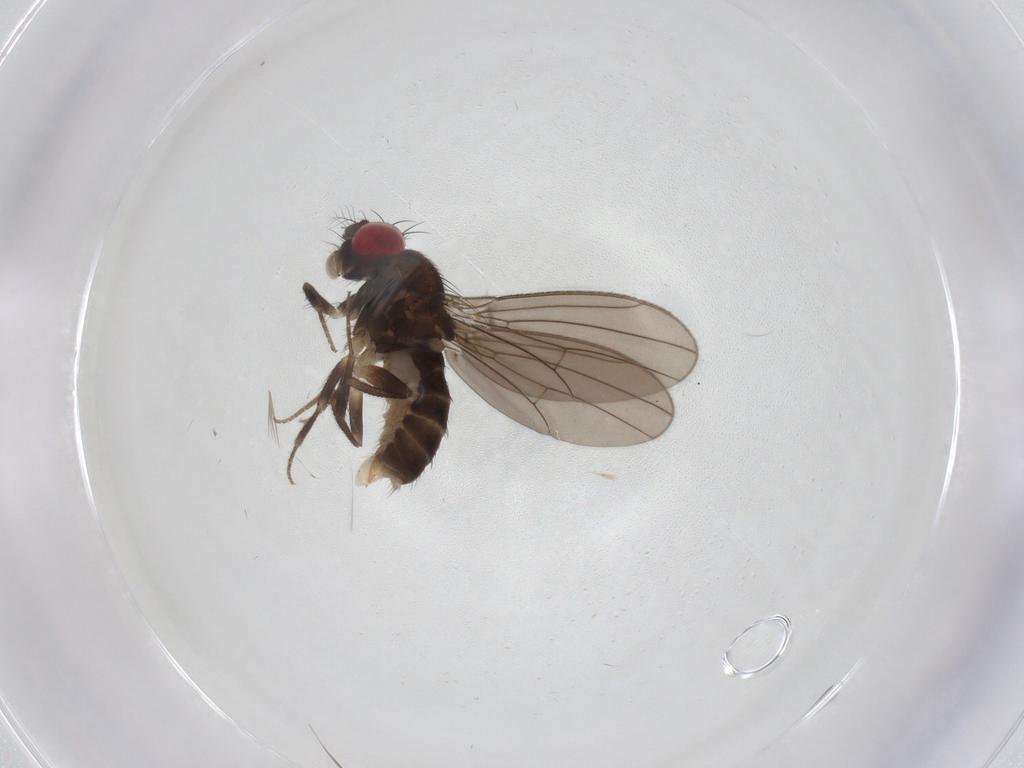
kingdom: Animalia
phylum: Arthropoda
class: Insecta
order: Diptera
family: Drosophilidae
